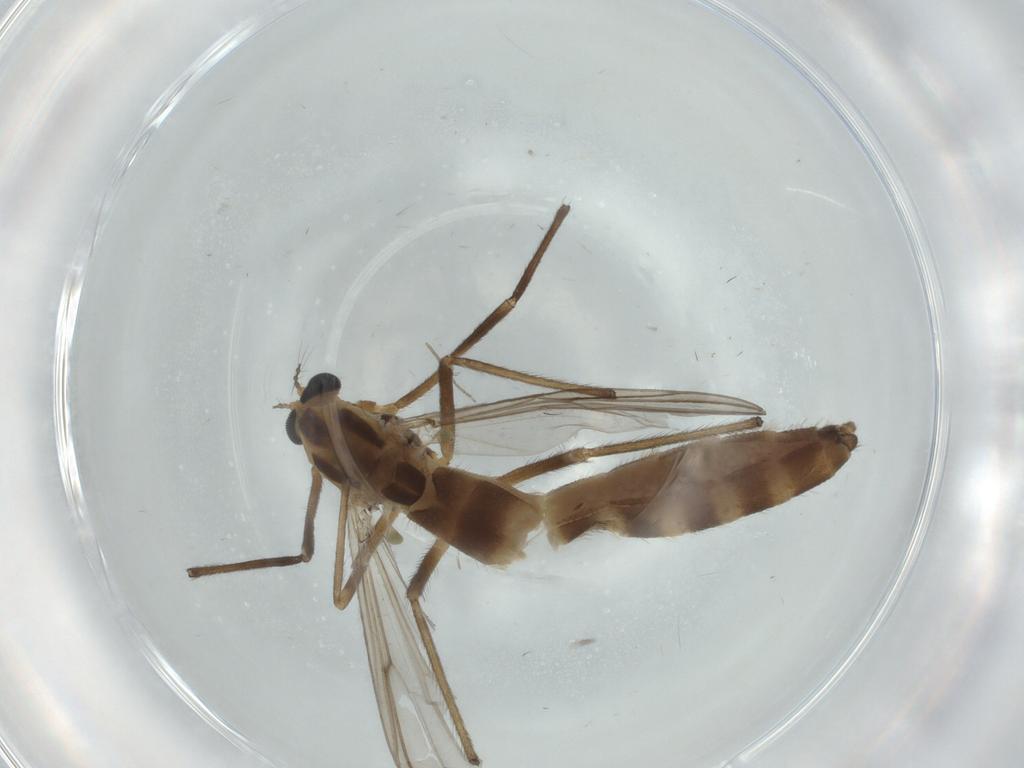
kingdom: Animalia
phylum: Arthropoda
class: Insecta
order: Diptera
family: Chironomidae
